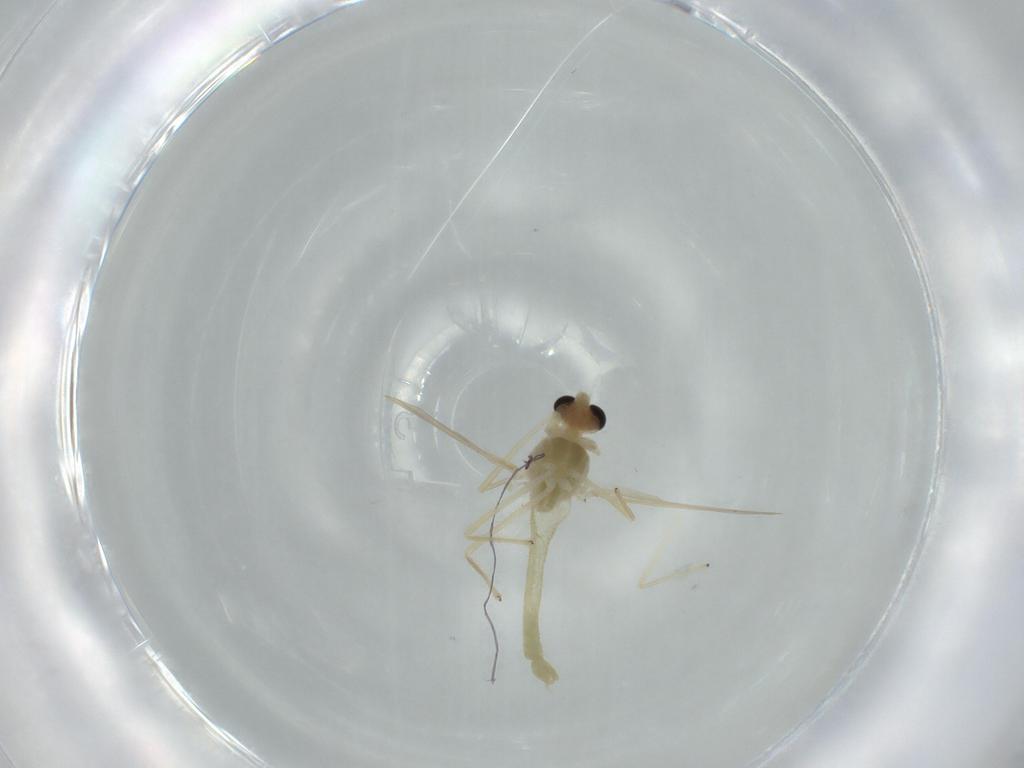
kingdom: Animalia
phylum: Arthropoda
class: Insecta
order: Diptera
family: Chironomidae
